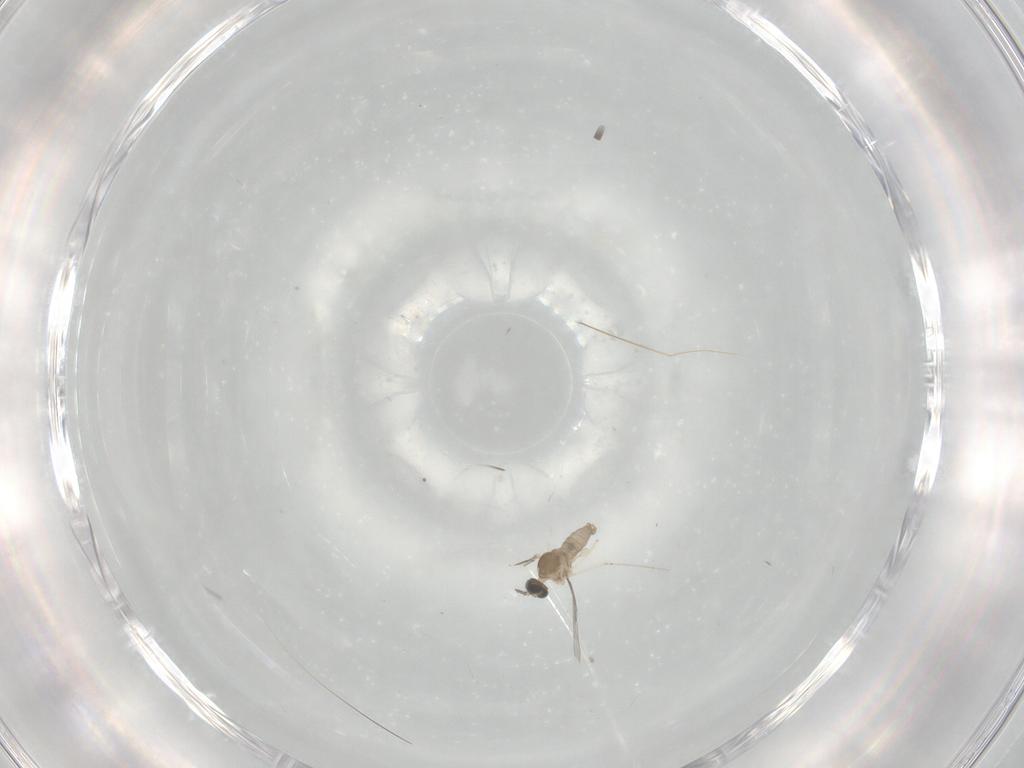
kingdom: Animalia
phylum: Arthropoda
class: Insecta
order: Diptera
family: Cecidomyiidae
